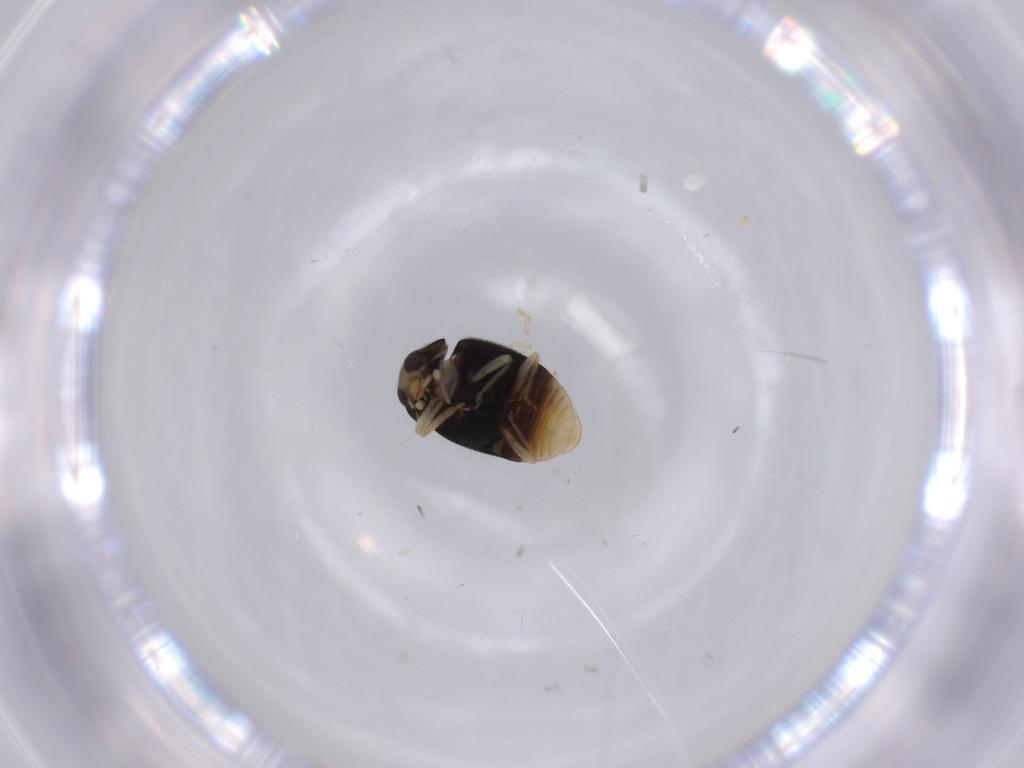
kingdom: Animalia
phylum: Arthropoda
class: Insecta
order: Coleoptera
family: Coccinellidae
